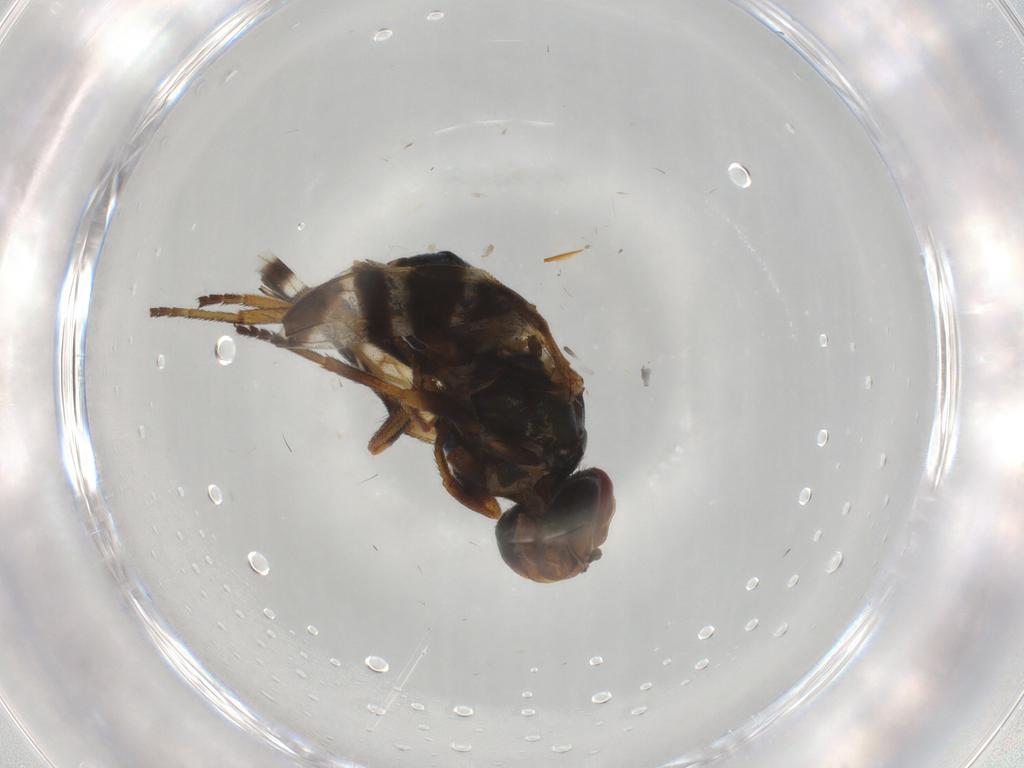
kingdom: Animalia
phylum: Arthropoda
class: Insecta
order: Diptera
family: Platystomatidae
